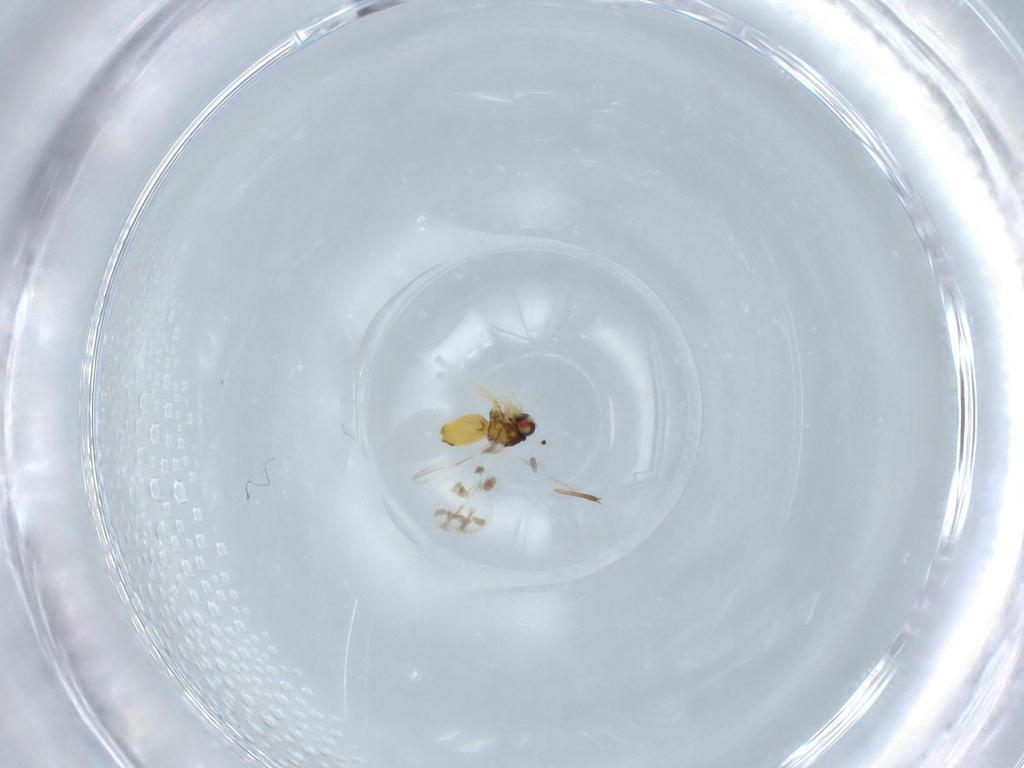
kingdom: Animalia
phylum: Arthropoda
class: Insecta
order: Hemiptera
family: Aleyrodidae
